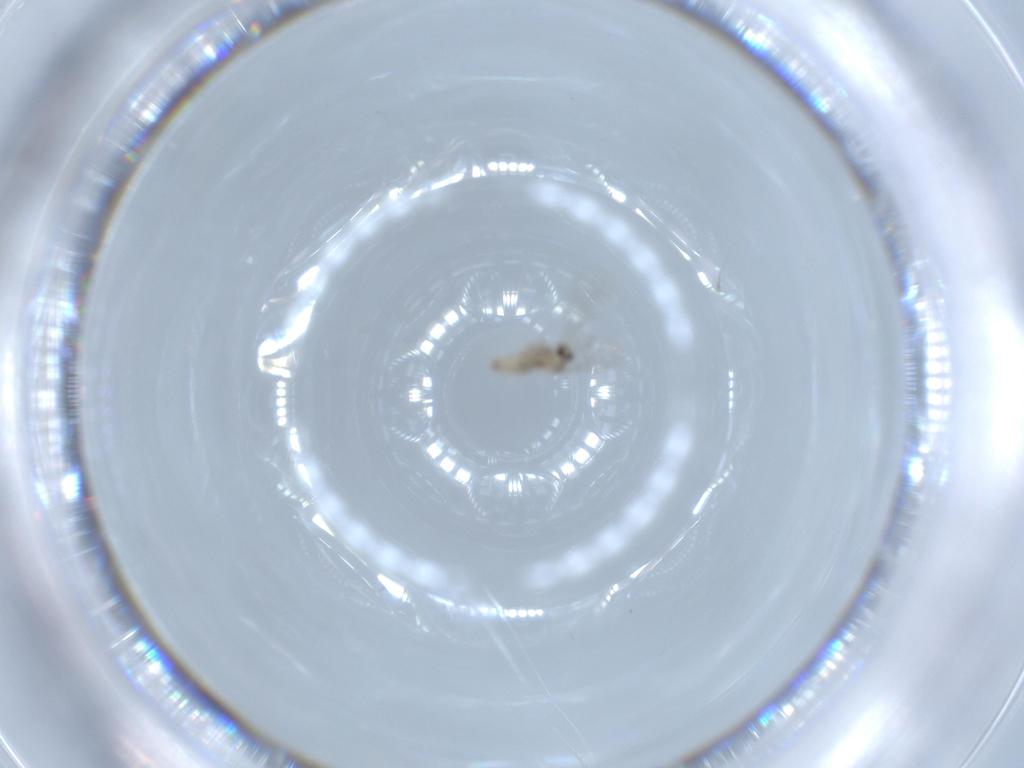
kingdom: Animalia
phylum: Arthropoda
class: Insecta
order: Diptera
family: Cecidomyiidae
